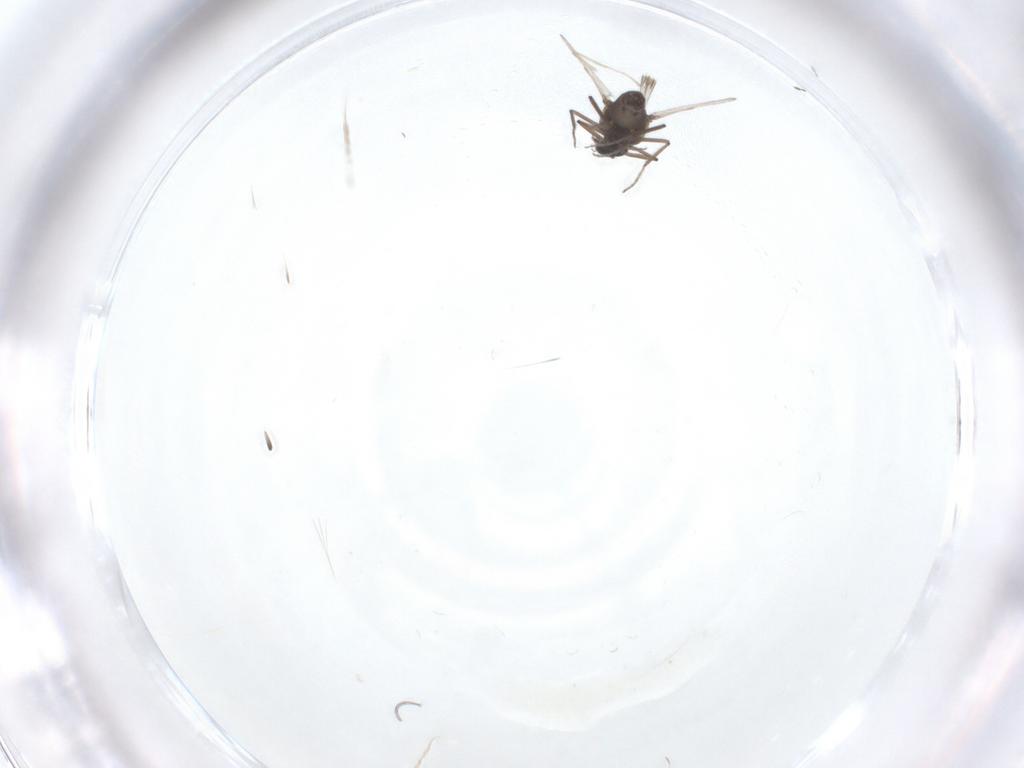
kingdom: Animalia
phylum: Arthropoda
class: Insecta
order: Diptera
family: Ceratopogonidae
